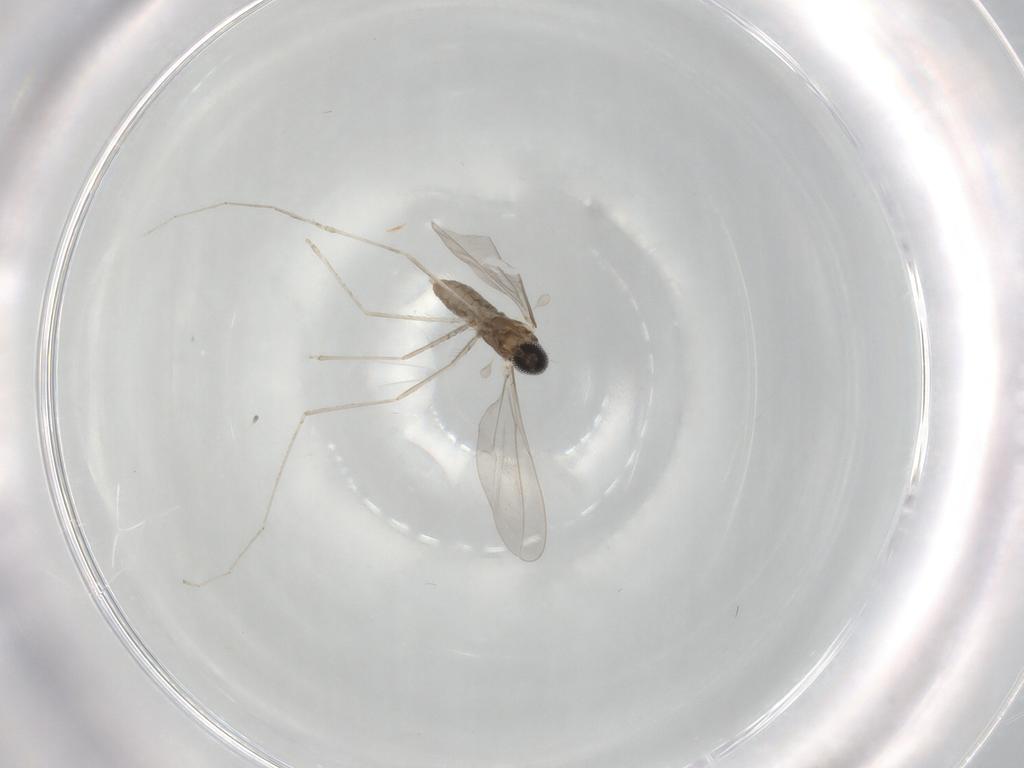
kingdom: Animalia
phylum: Arthropoda
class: Insecta
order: Diptera
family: Cecidomyiidae
